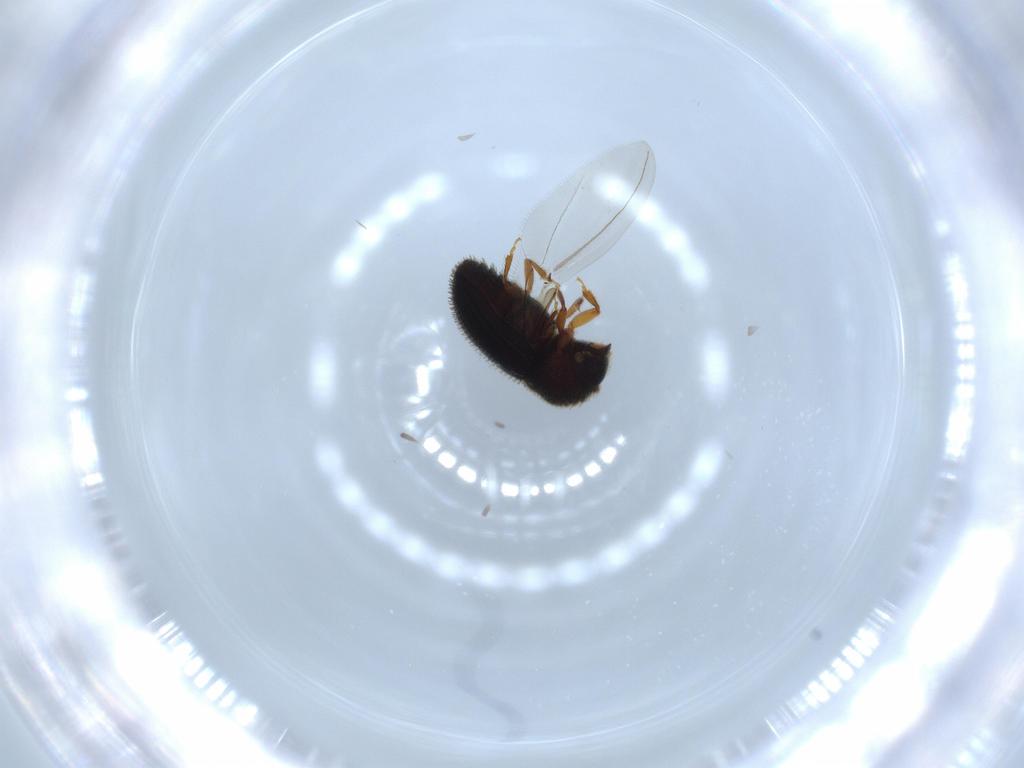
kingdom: Animalia
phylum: Arthropoda
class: Insecta
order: Coleoptera
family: Curculionidae
